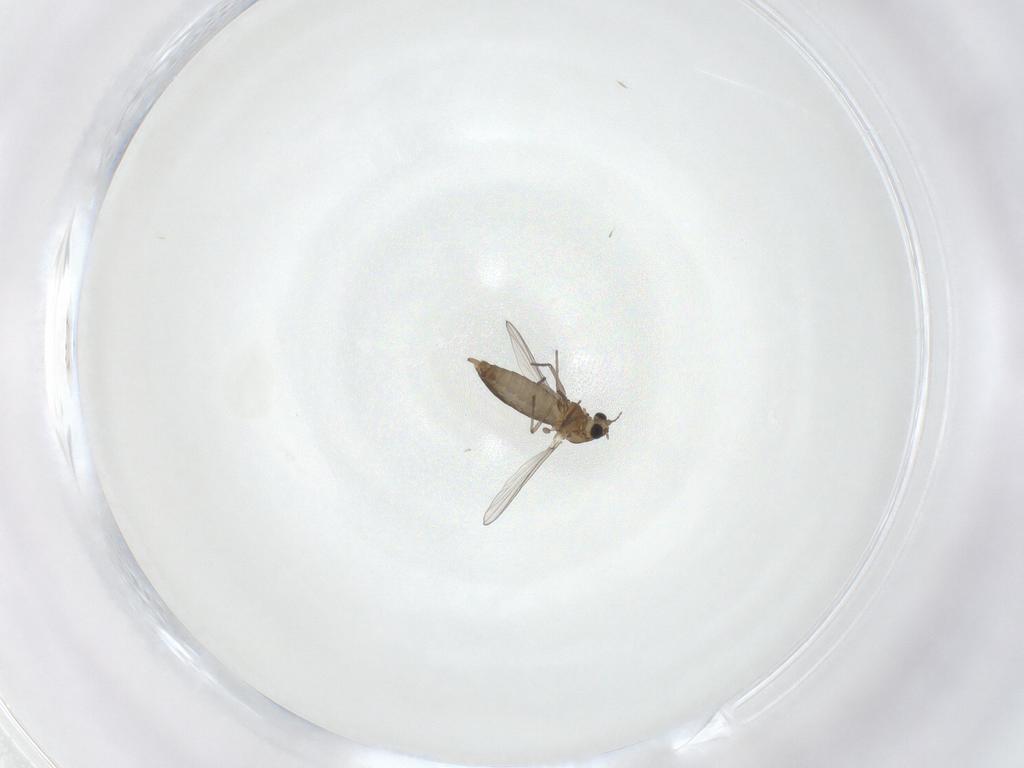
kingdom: Animalia
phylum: Arthropoda
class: Insecta
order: Diptera
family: Chironomidae
